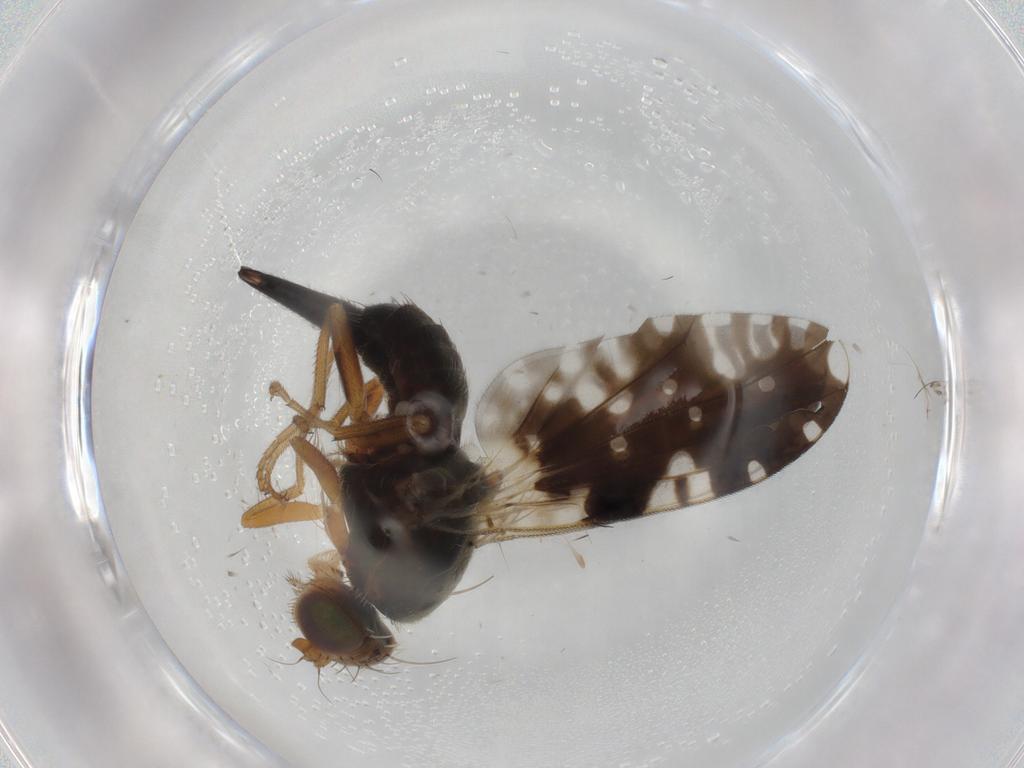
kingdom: Animalia
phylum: Arthropoda
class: Insecta
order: Diptera
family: Tephritidae
